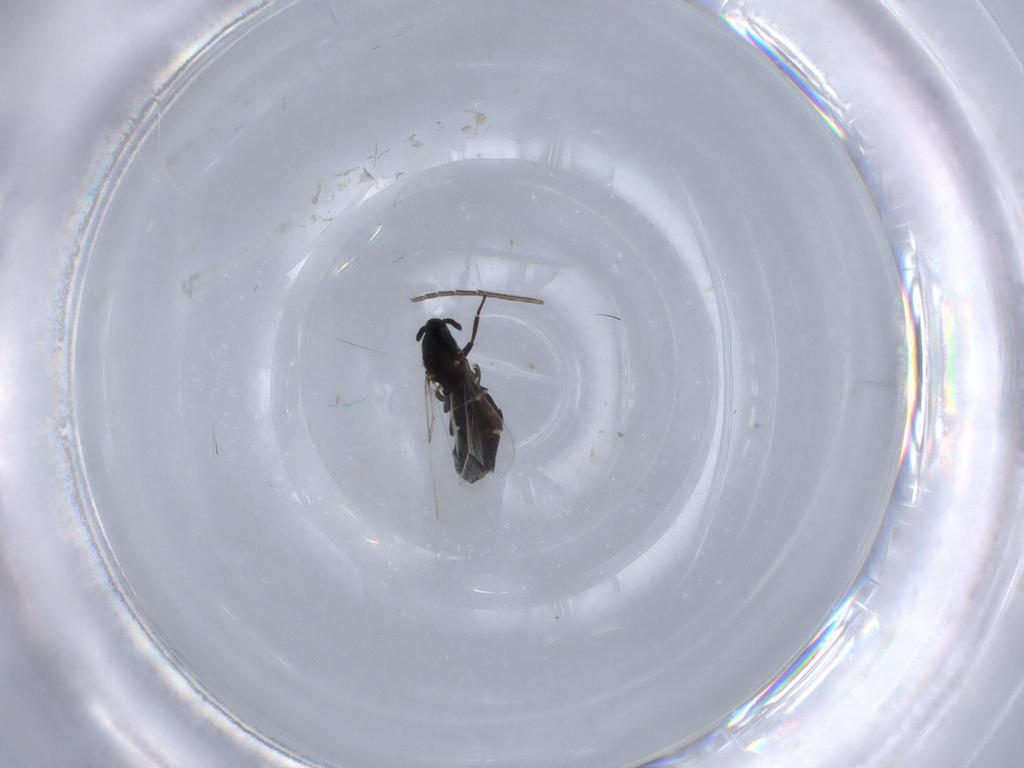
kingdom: Animalia
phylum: Arthropoda
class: Insecta
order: Diptera
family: Scatopsidae
